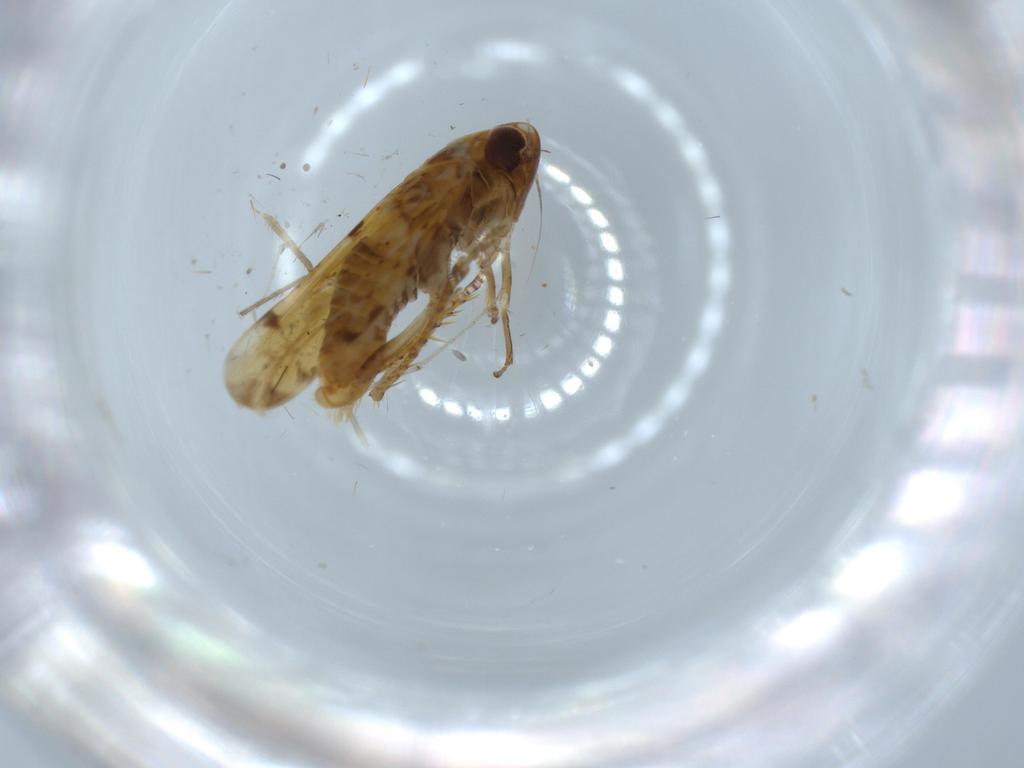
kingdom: Animalia
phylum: Arthropoda
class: Insecta
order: Hemiptera
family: Cicadellidae
